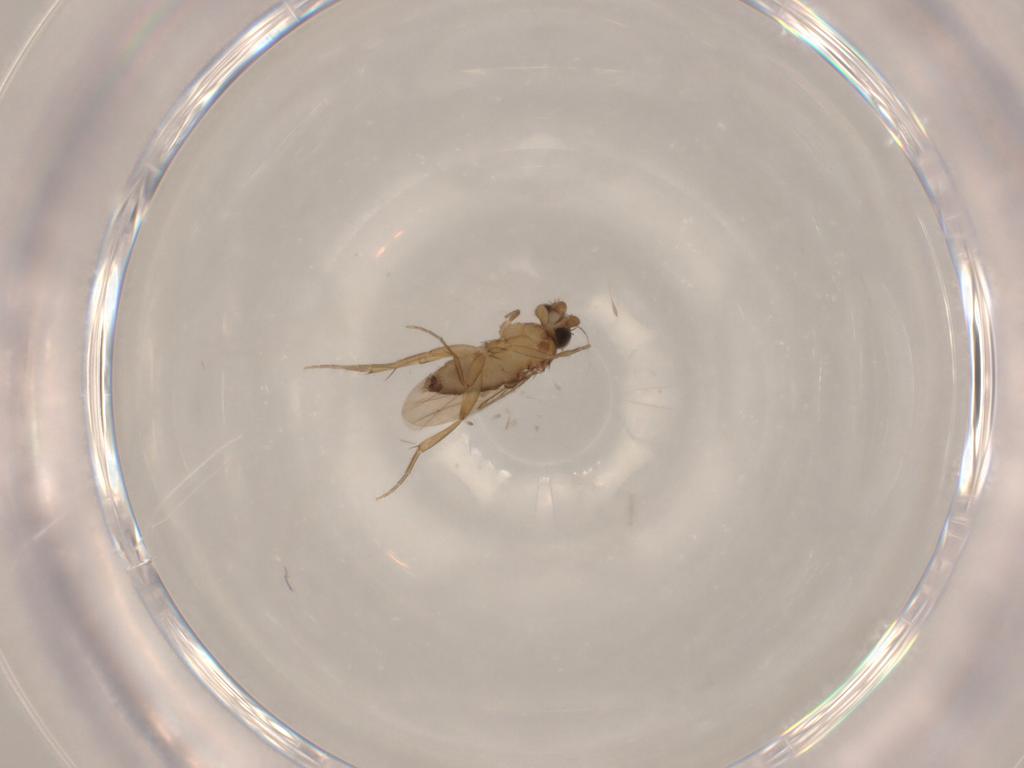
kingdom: Animalia
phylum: Arthropoda
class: Insecta
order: Diptera
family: Phoridae
